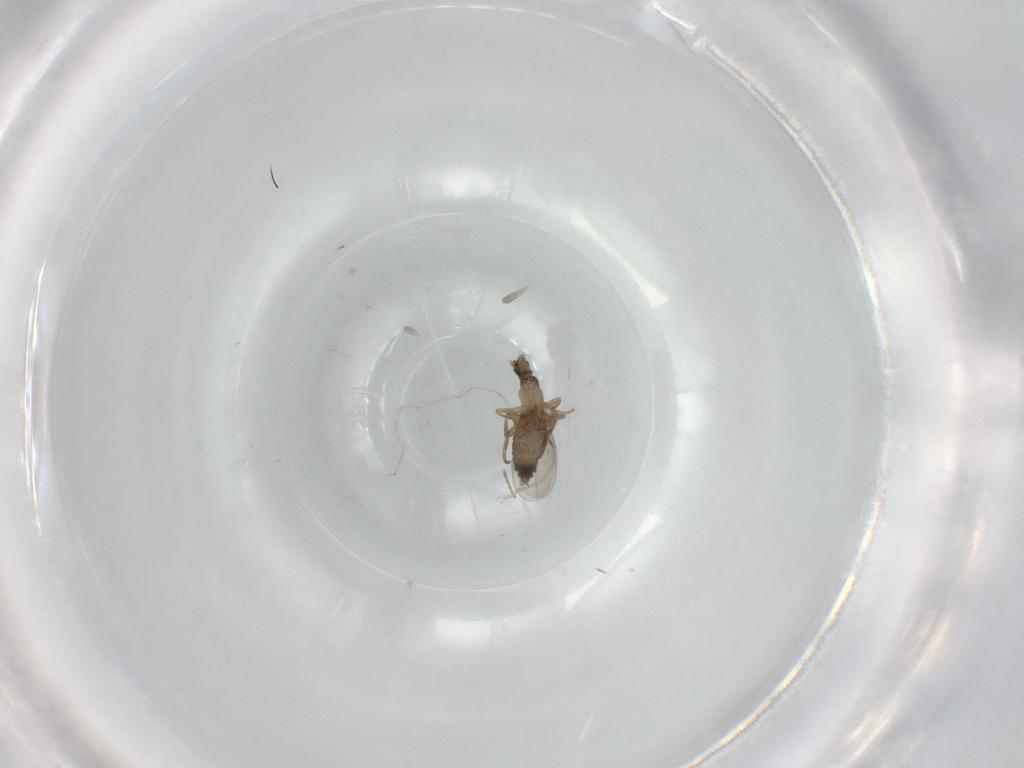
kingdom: Animalia
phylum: Arthropoda
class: Insecta
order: Diptera
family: Phoridae
